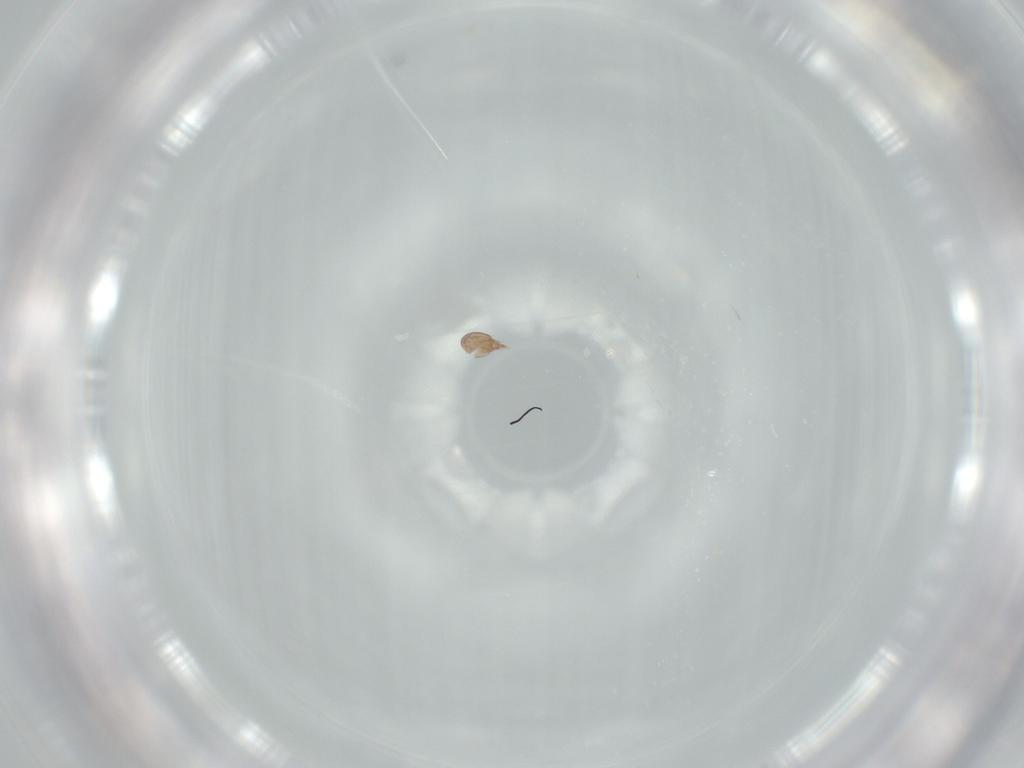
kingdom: Animalia
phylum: Arthropoda
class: Arachnida
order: Sarcoptiformes
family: Acaridae
